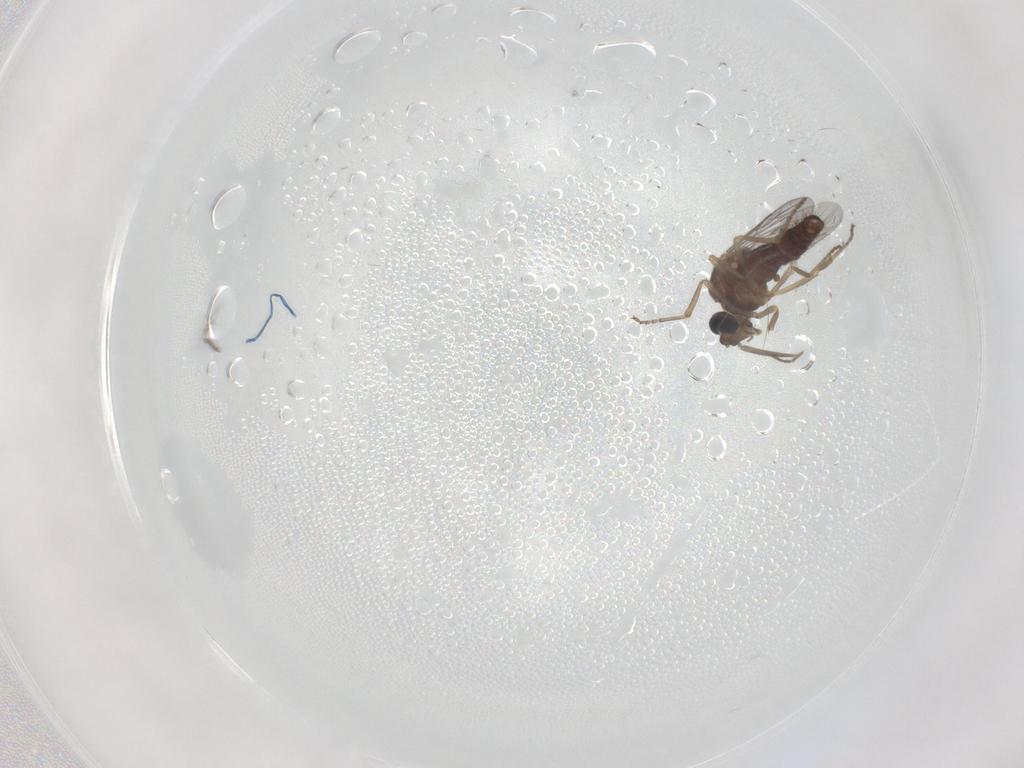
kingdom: Animalia
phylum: Arthropoda
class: Insecta
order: Diptera
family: Ceratopogonidae
